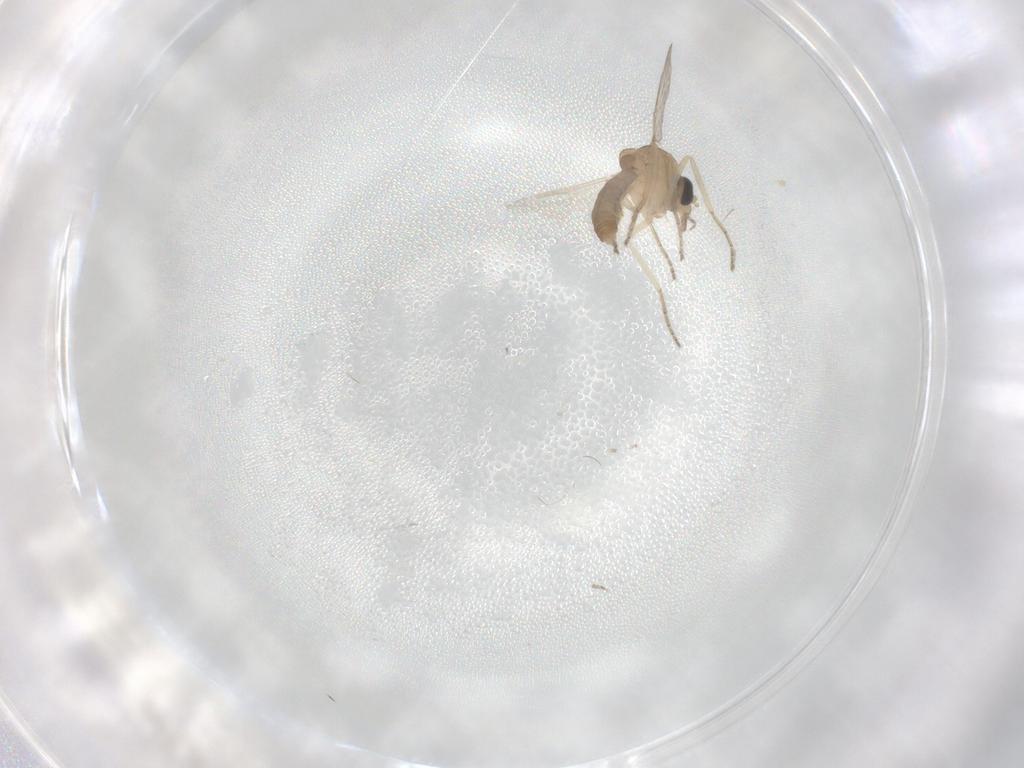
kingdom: Animalia
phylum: Arthropoda
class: Insecta
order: Diptera
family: Ceratopogonidae
